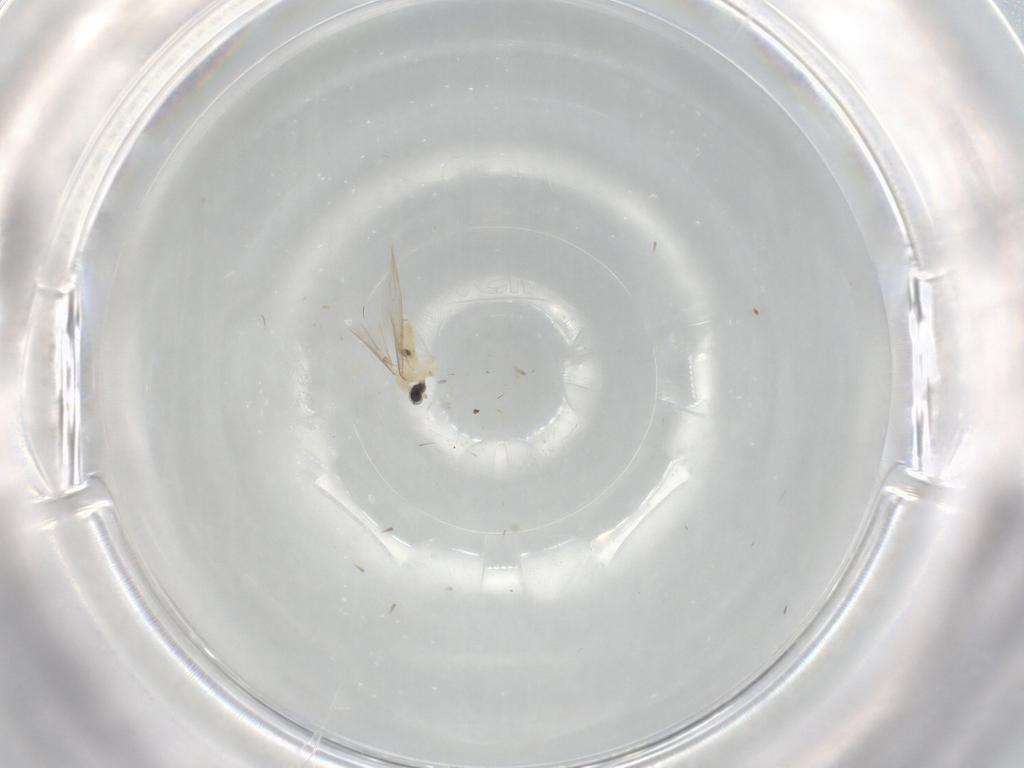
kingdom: Animalia
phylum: Arthropoda
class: Insecta
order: Diptera
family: Cecidomyiidae
